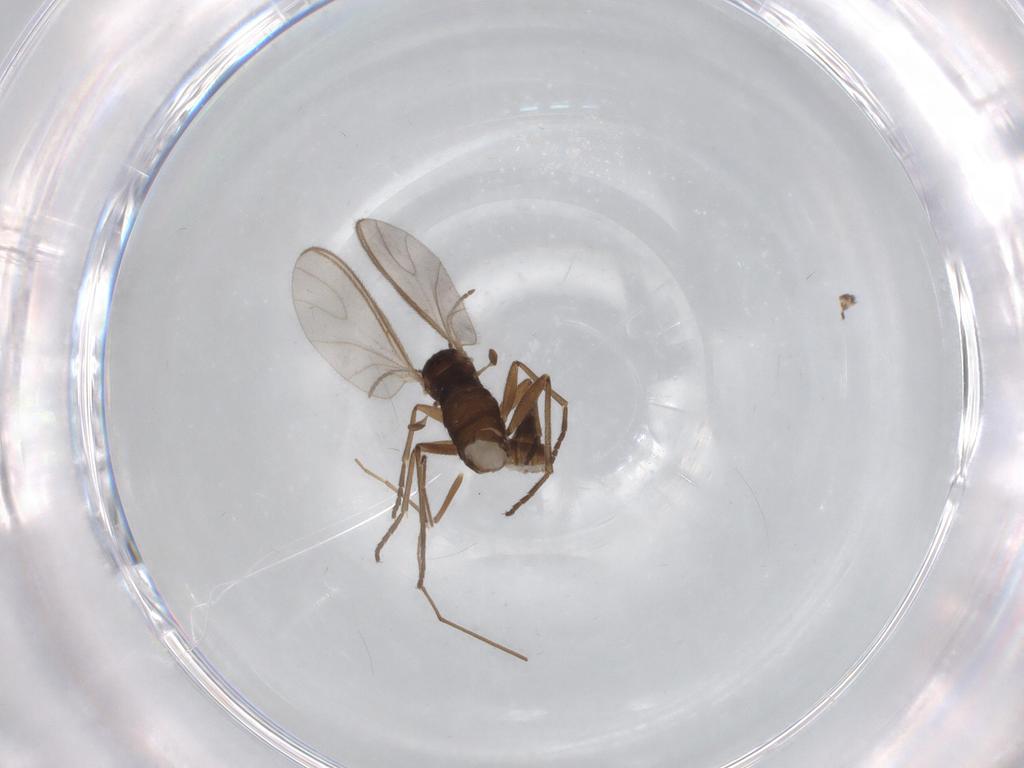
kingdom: Animalia
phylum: Arthropoda
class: Insecta
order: Diptera
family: Sciaridae
